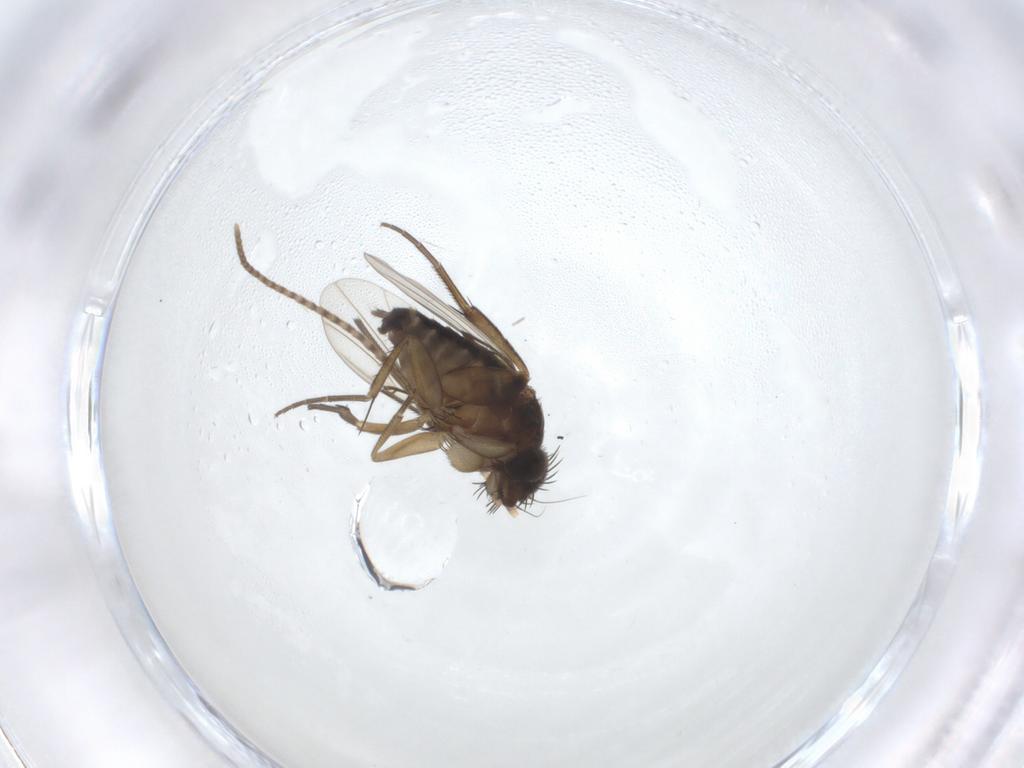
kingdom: Animalia
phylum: Arthropoda
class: Insecta
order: Diptera
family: Phoridae
